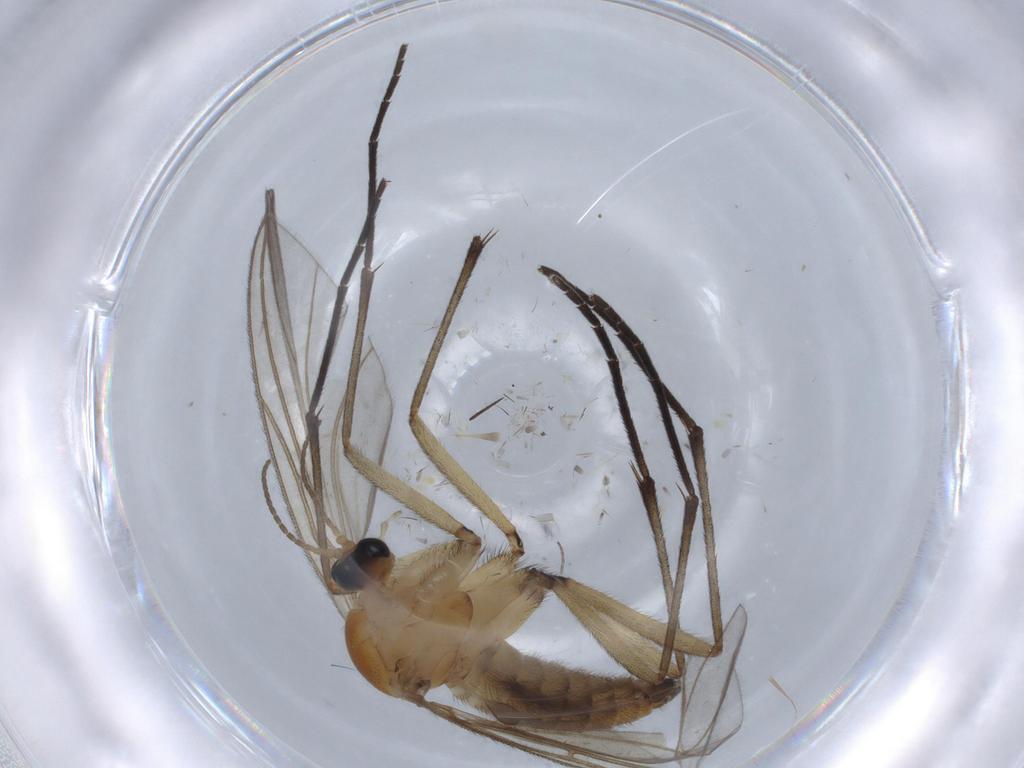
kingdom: Animalia
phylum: Arthropoda
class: Insecta
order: Diptera
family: Sciaridae
